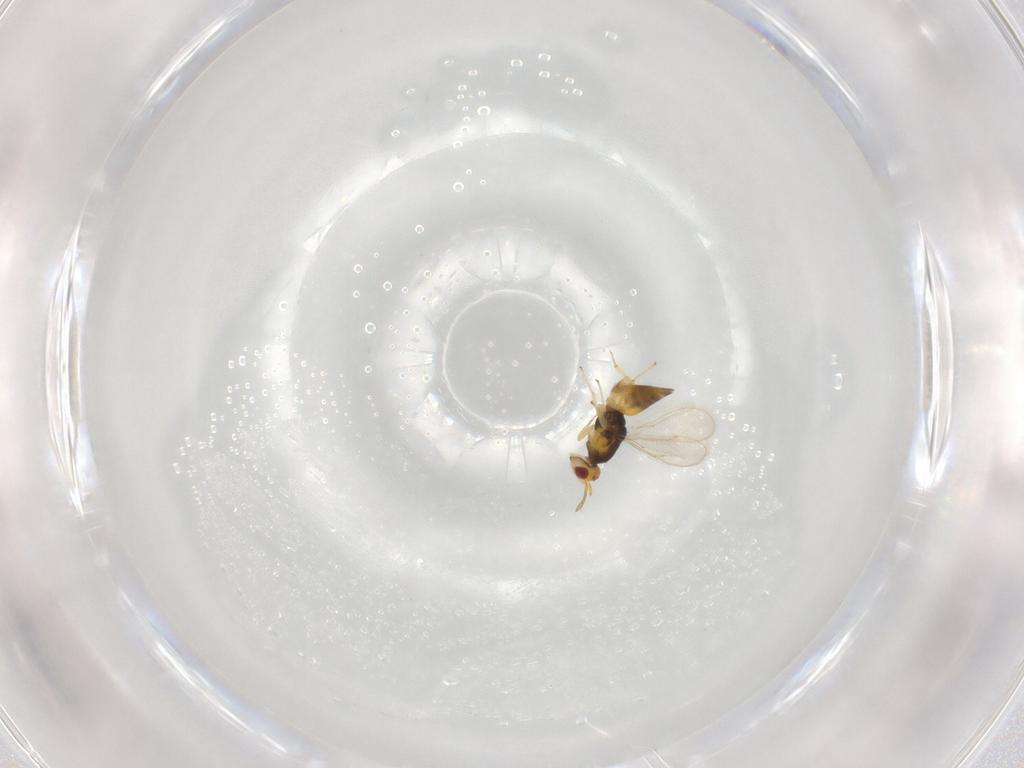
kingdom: Animalia
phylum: Arthropoda
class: Insecta
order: Hymenoptera
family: Eulophidae
